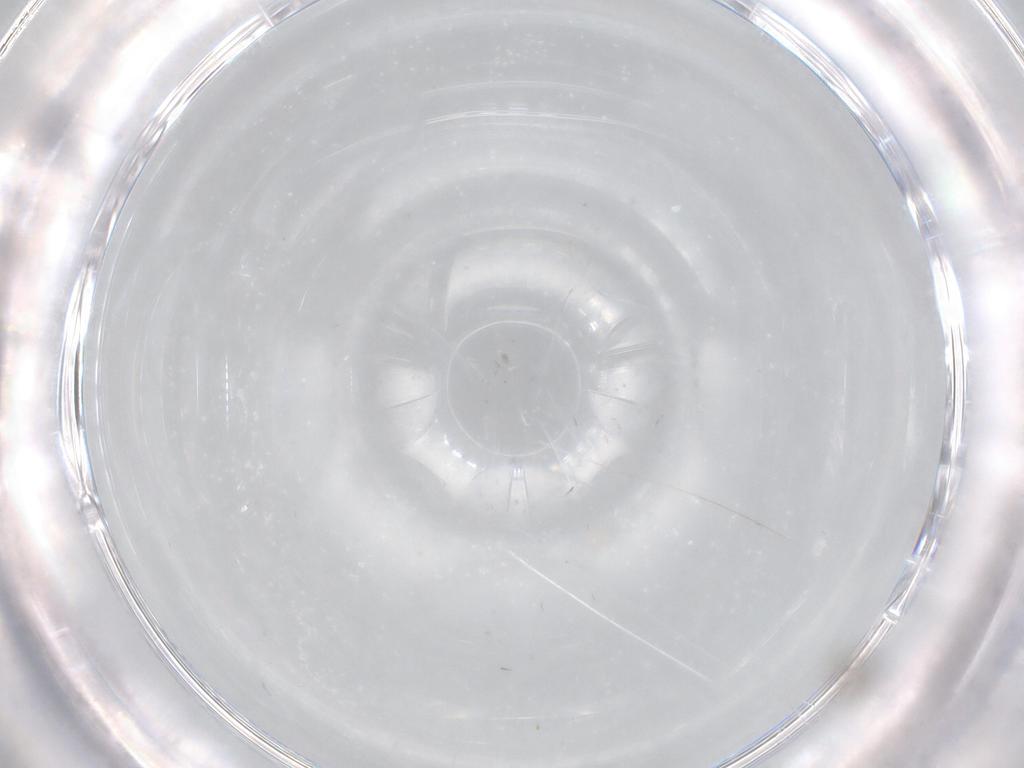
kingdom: Animalia
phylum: Arthropoda
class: Insecta
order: Diptera
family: Cecidomyiidae
